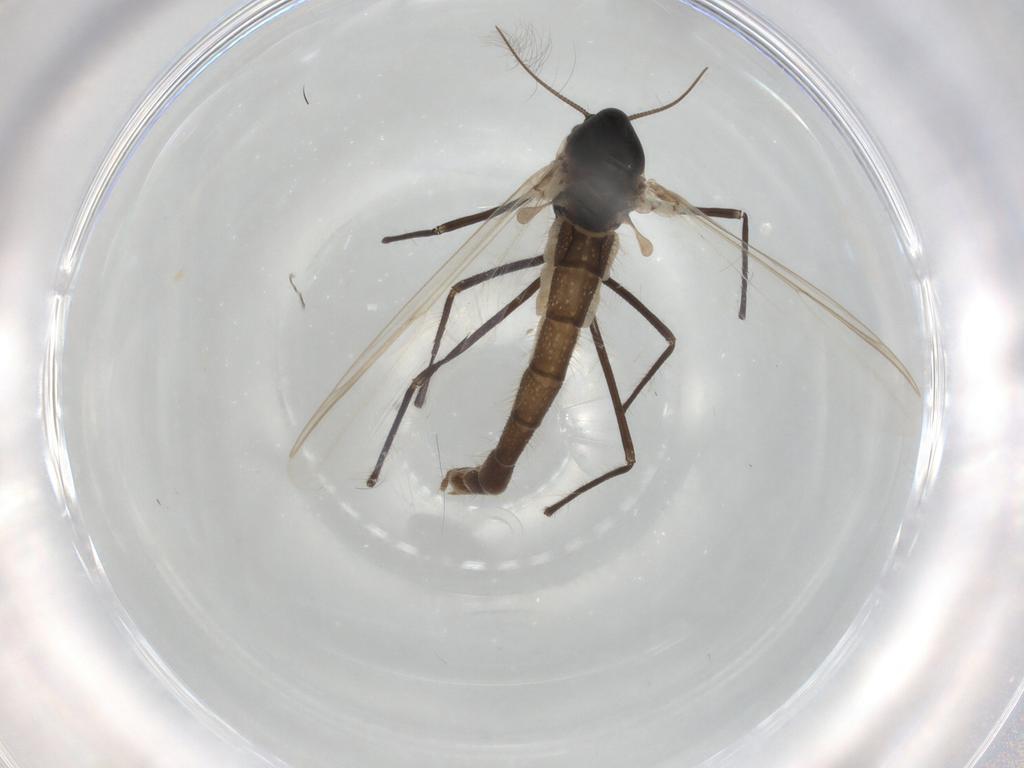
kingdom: Animalia
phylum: Arthropoda
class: Insecta
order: Diptera
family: Chironomidae
